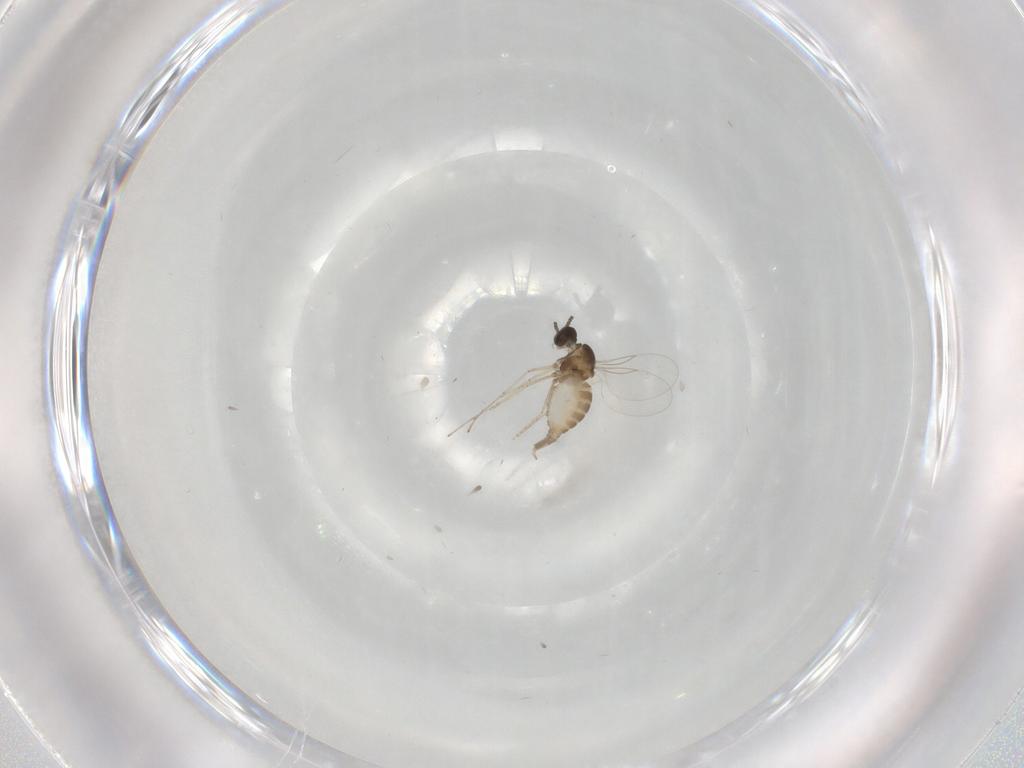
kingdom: Animalia
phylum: Arthropoda
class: Insecta
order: Diptera
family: Cecidomyiidae
